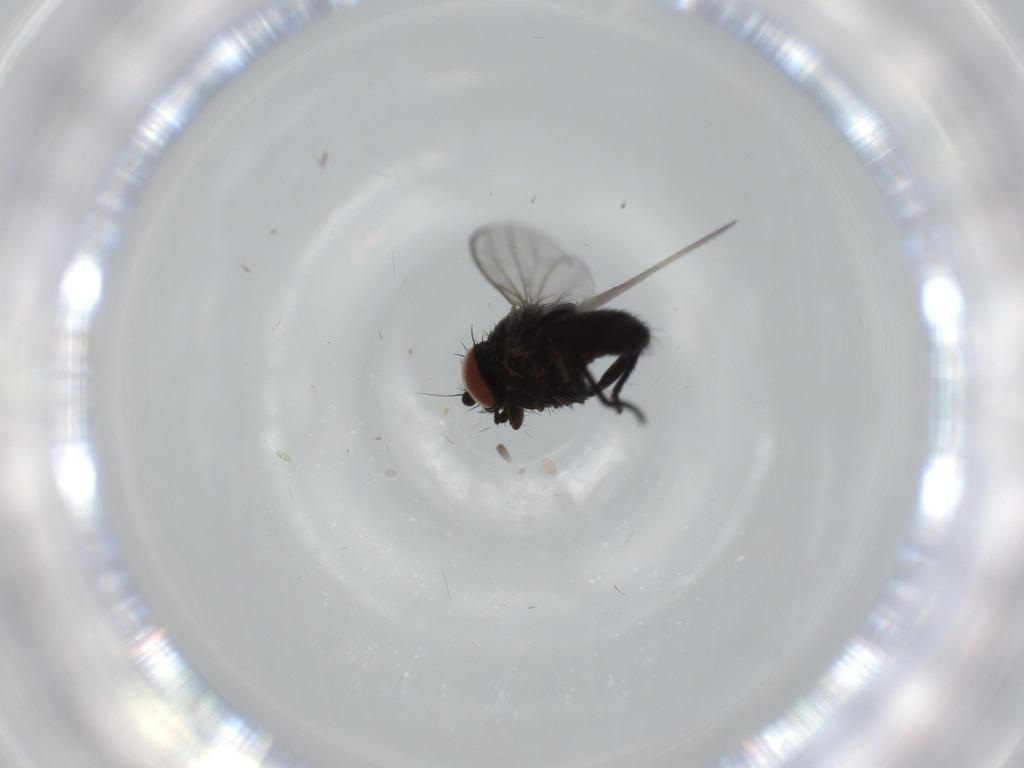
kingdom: Animalia
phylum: Arthropoda
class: Insecta
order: Diptera
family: Milichiidae
